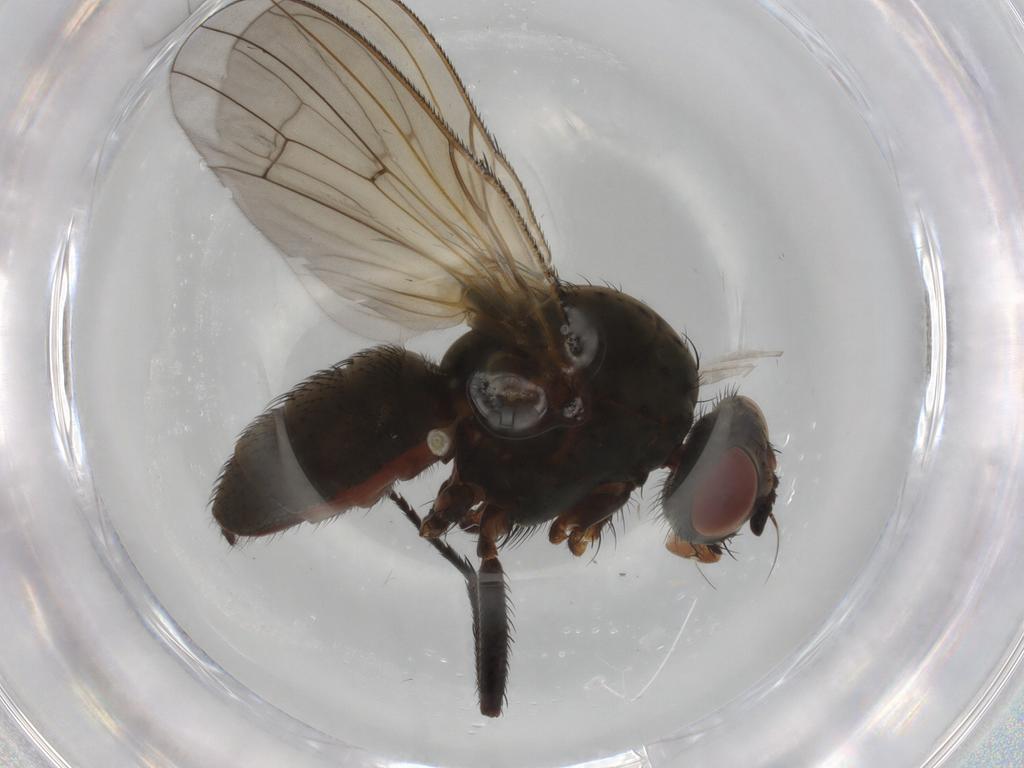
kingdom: Animalia
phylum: Arthropoda
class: Insecta
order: Diptera
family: Anthomyiidae
